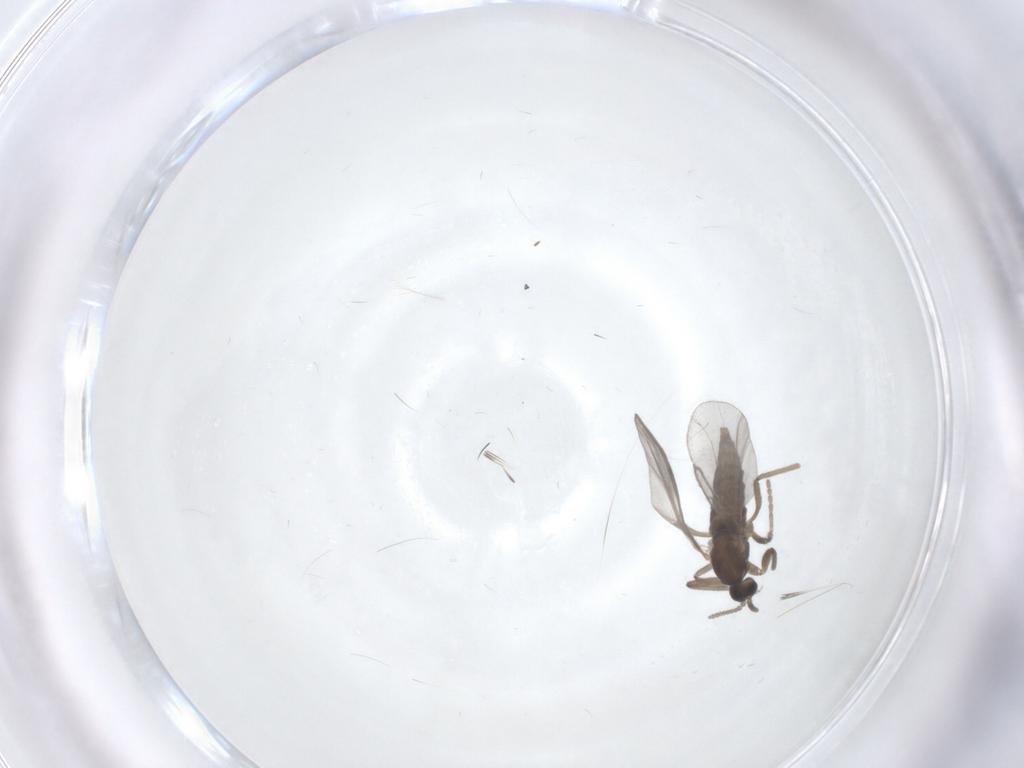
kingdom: Animalia
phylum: Arthropoda
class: Insecta
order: Diptera
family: Cecidomyiidae
